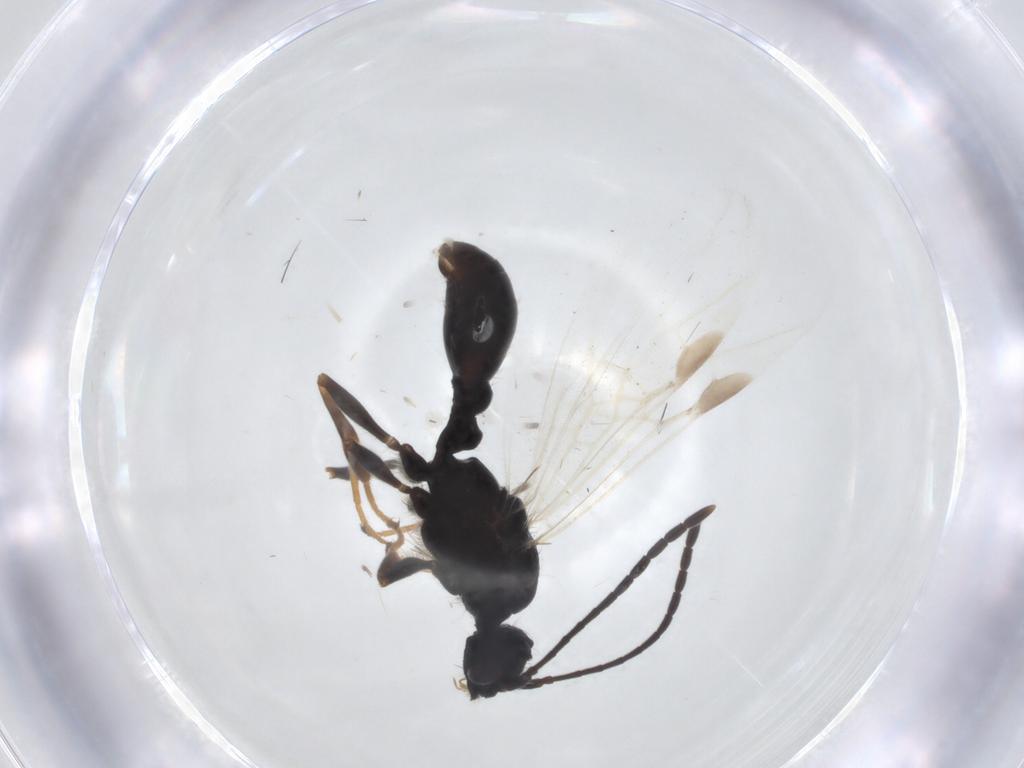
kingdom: Animalia
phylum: Arthropoda
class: Insecta
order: Hymenoptera
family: Formicidae
